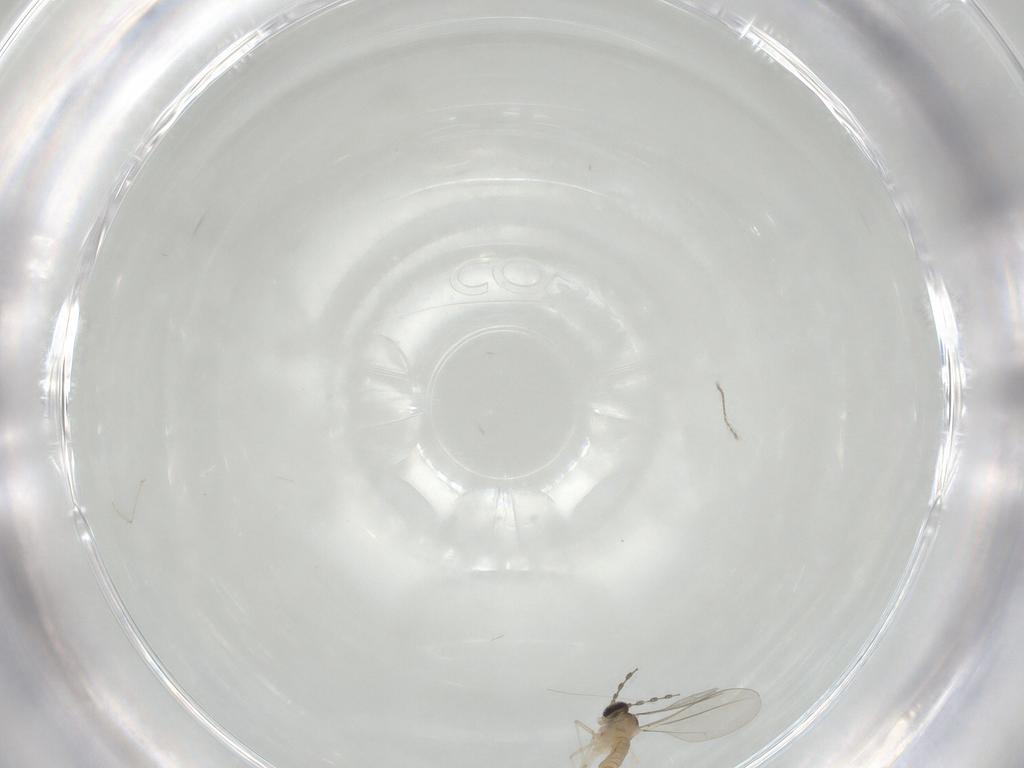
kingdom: Animalia
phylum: Arthropoda
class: Insecta
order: Diptera
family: Cecidomyiidae
